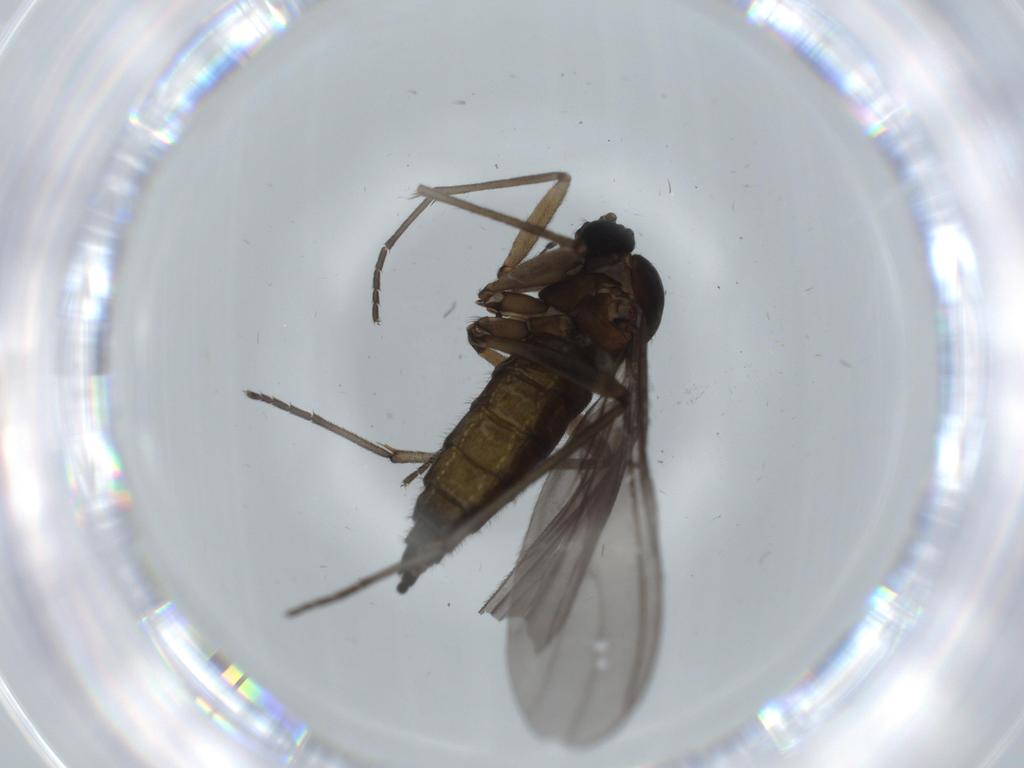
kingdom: Animalia
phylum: Arthropoda
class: Insecta
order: Diptera
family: Sciaridae
